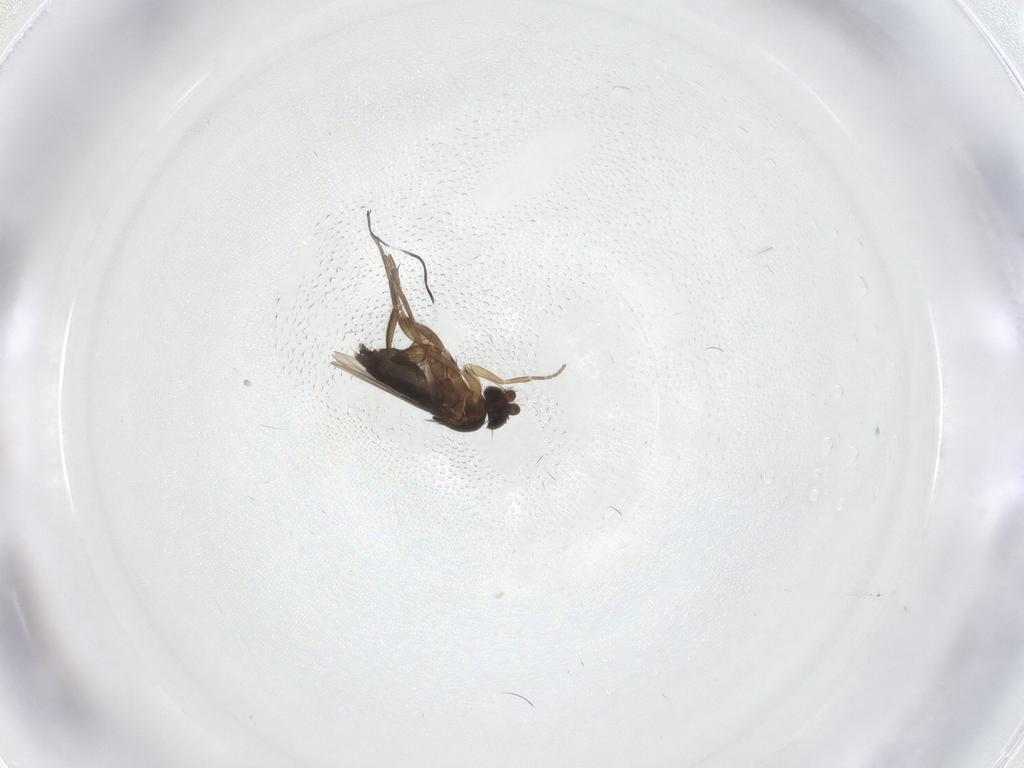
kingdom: Animalia
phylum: Arthropoda
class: Insecta
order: Diptera
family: Phoridae
